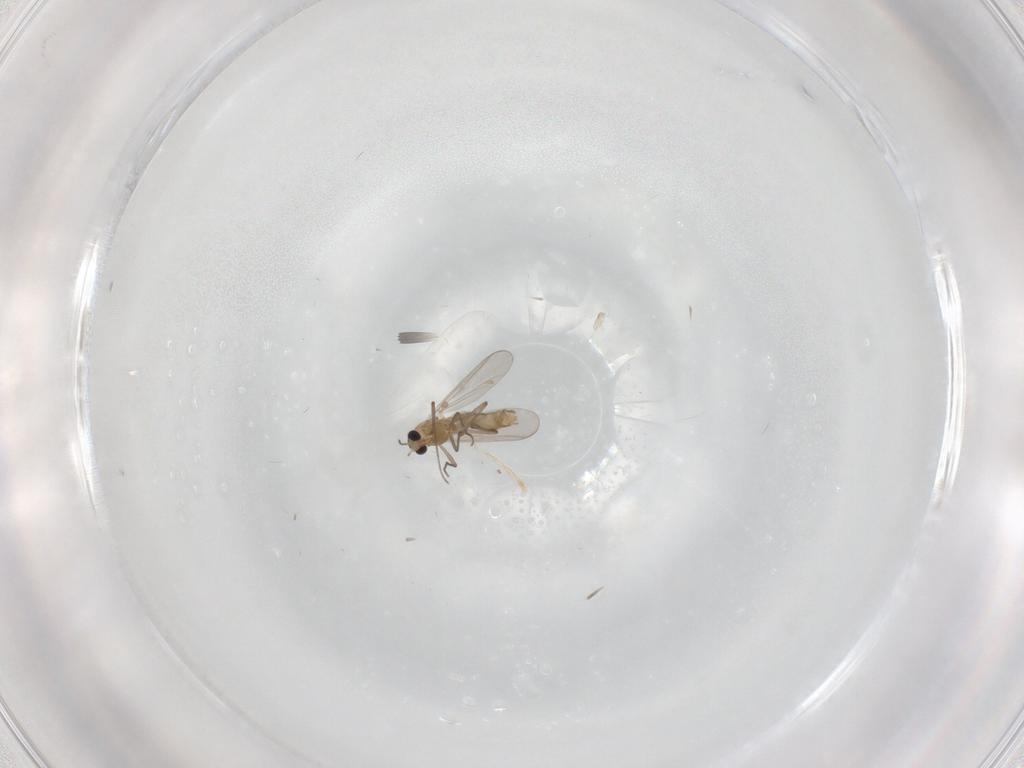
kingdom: Animalia
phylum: Arthropoda
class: Insecta
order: Diptera
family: Chironomidae
